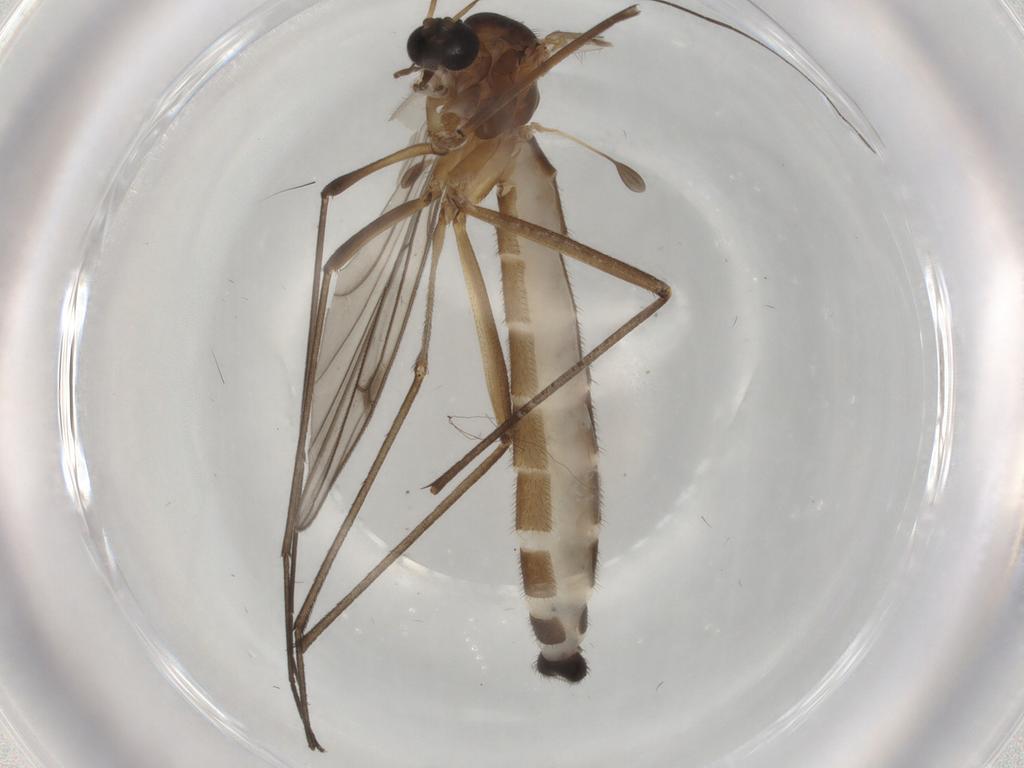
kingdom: Animalia
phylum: Arthropoda
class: Insecta
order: Diptera
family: Bolitophilidae
